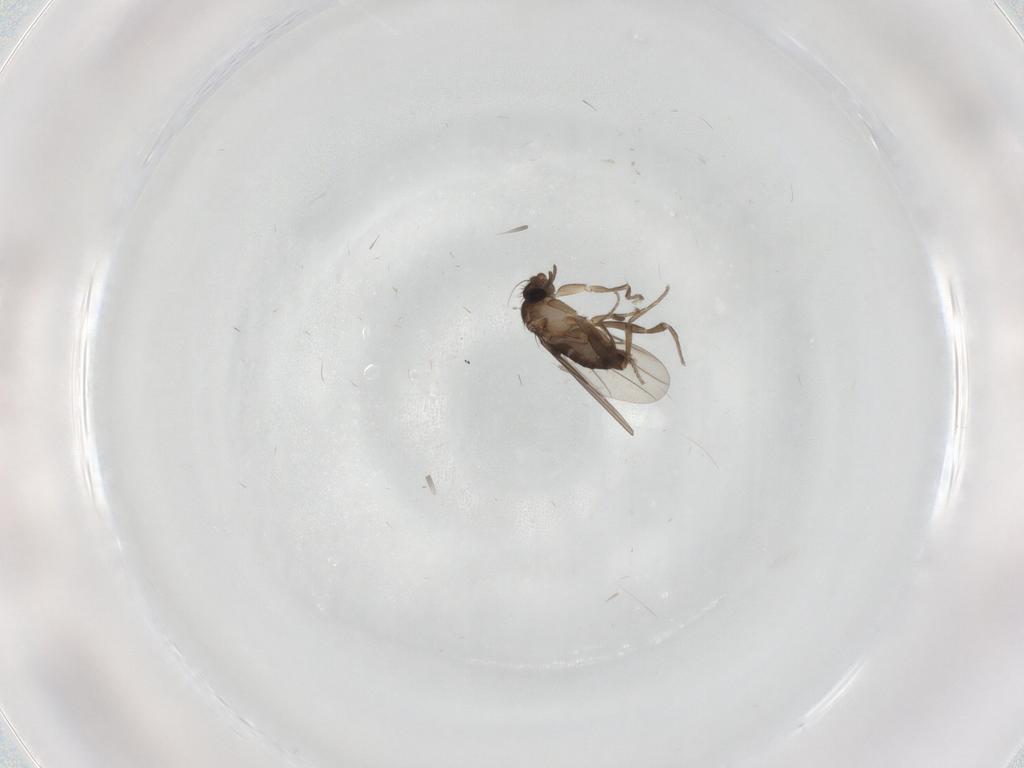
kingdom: Animalia
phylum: Arthropoda
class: Insecta
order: Diptera
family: Cecidomyiidae
